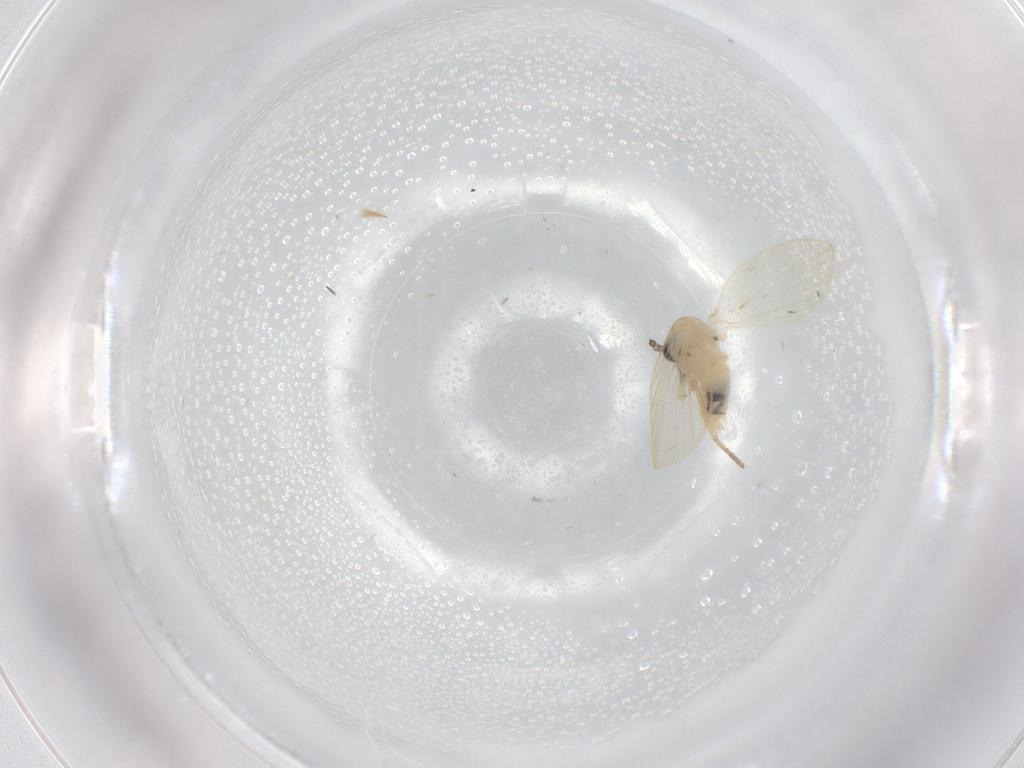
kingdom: Animalia
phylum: Arthropoda
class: Insecta
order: Diptera
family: Psychodidae
